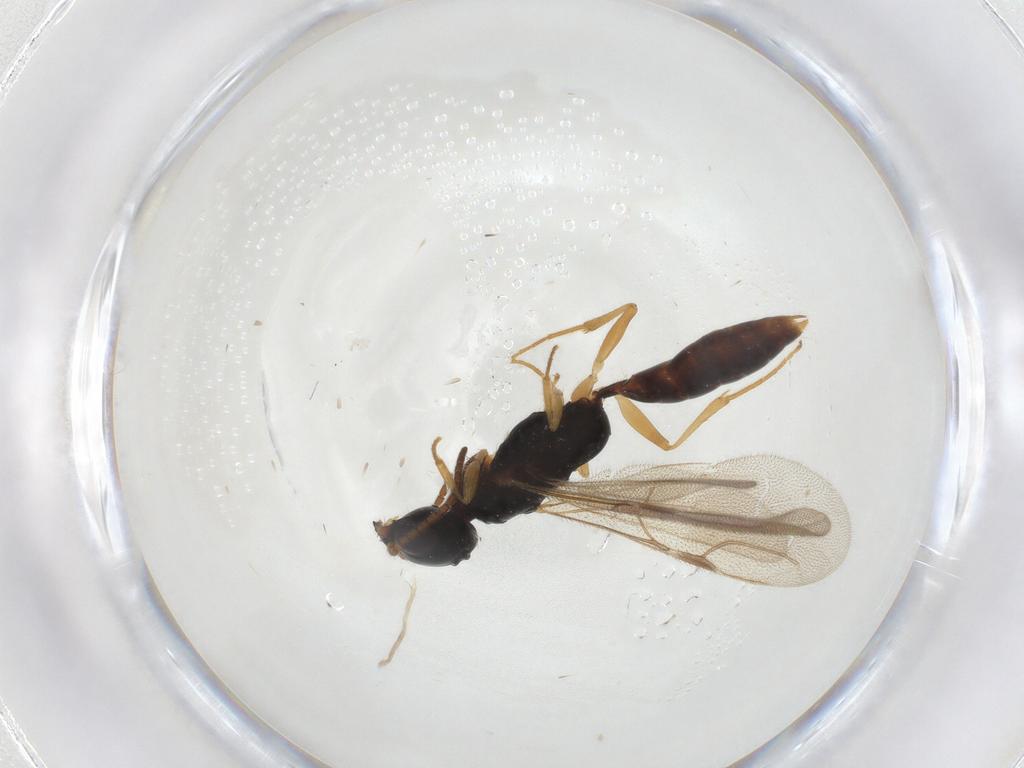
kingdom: Animalia
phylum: Arthropoda
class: Insecta
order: Hymenoptera
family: Bethylidae
